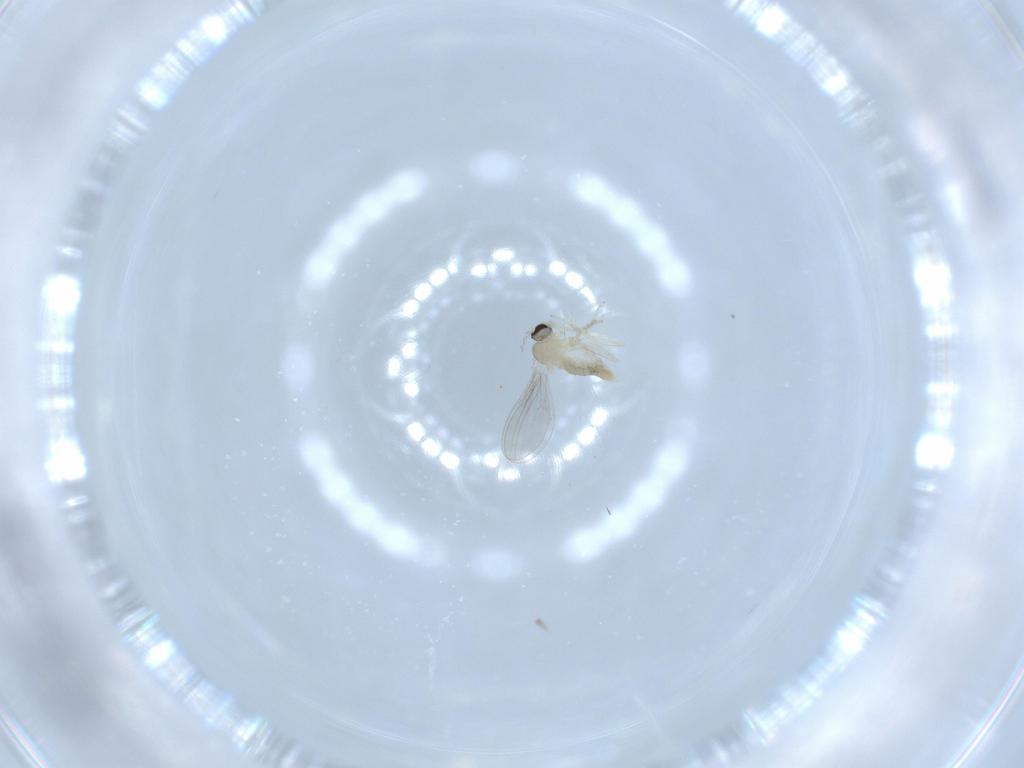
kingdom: Animalia
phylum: Arthropoda
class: Insecta
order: Diptera
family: Cecidomyiidae
